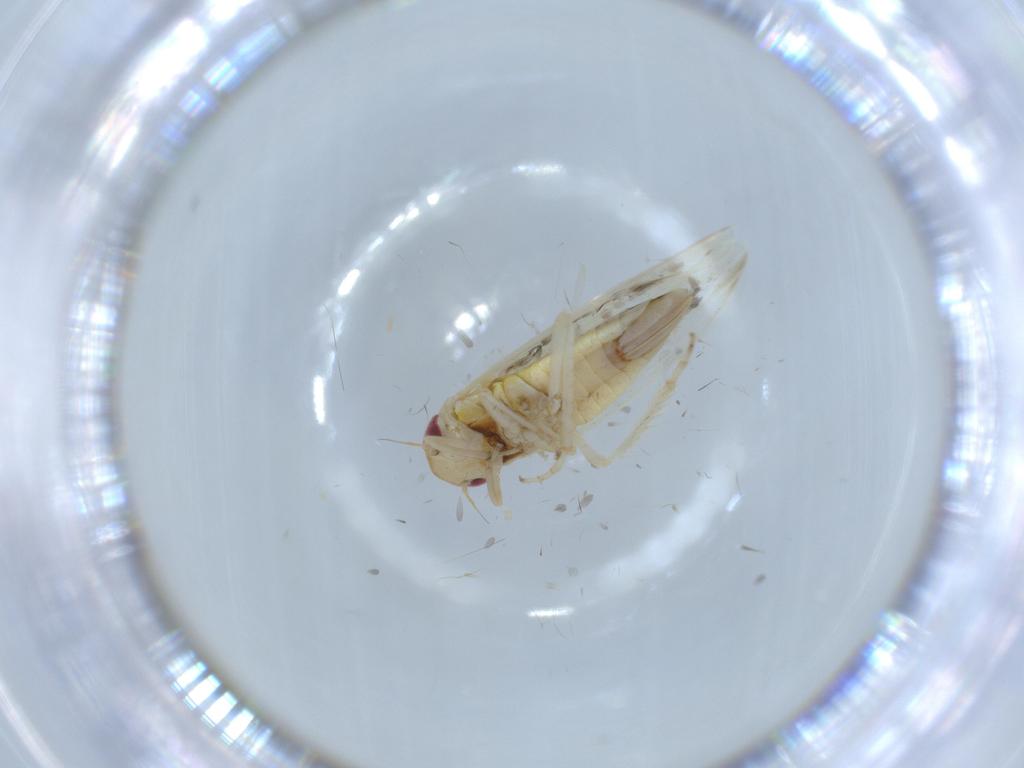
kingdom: Animalia
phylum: Arthropoda
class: Insecta
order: Hemiptera
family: Cicadellidae
